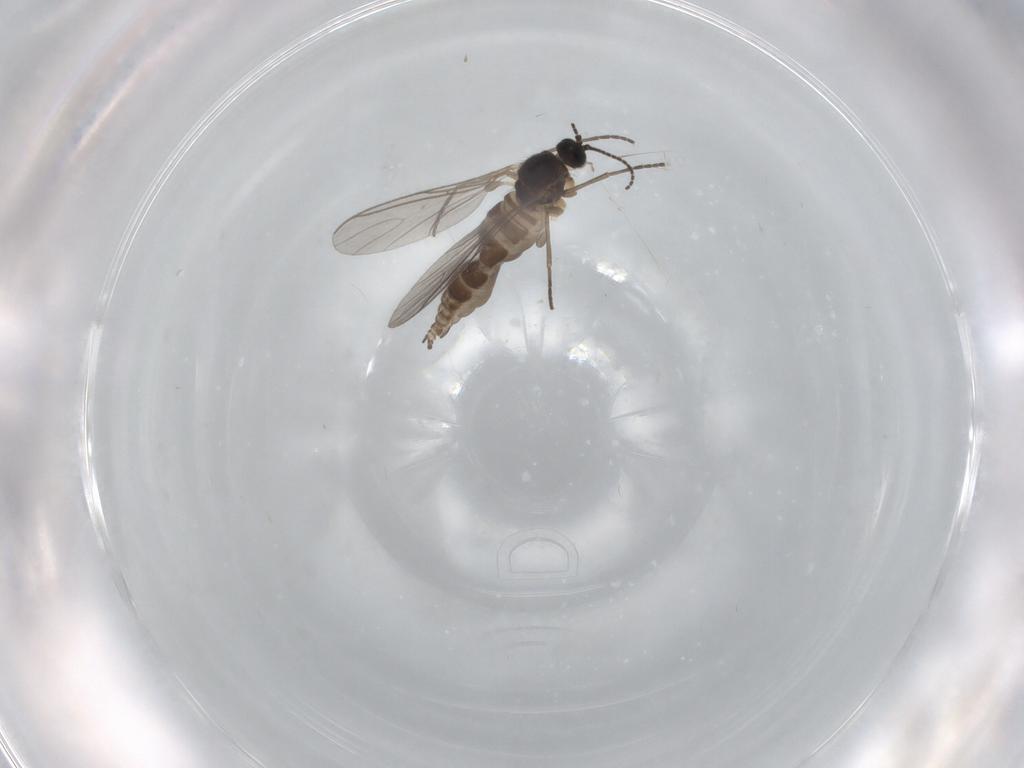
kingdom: Animalia
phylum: Arthropoda
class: Insecta
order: Diptera
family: Sciaridae
